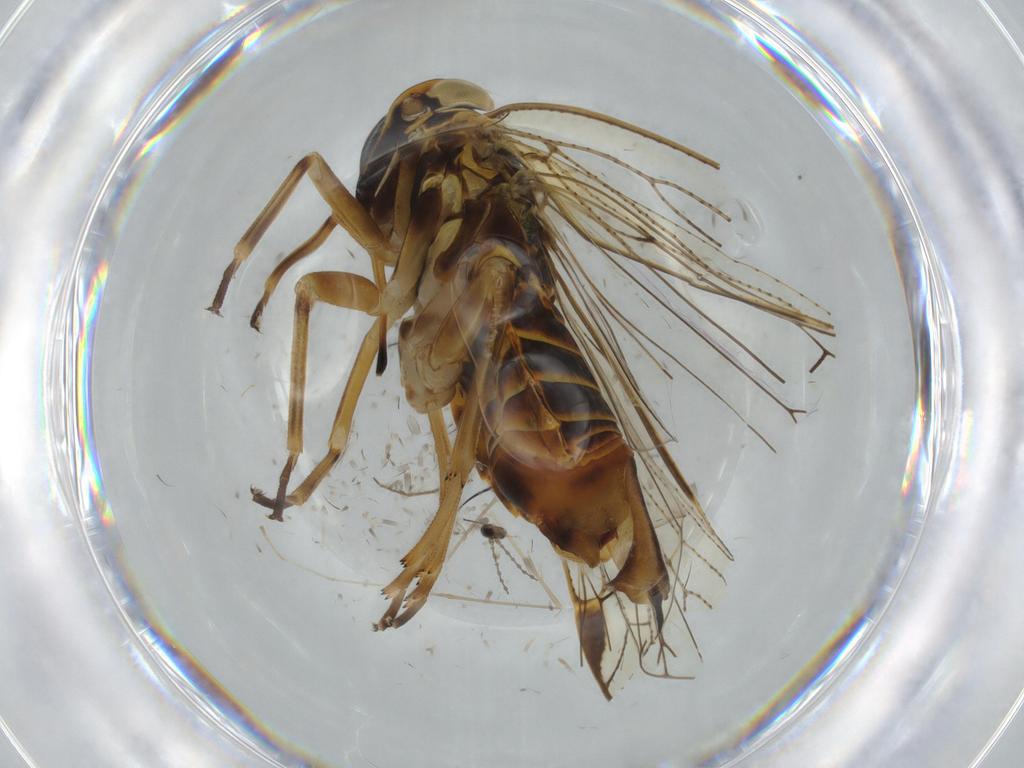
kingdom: Animalia
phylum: Arthropoda
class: Insecta
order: Hemiptera
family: Cixiidae
